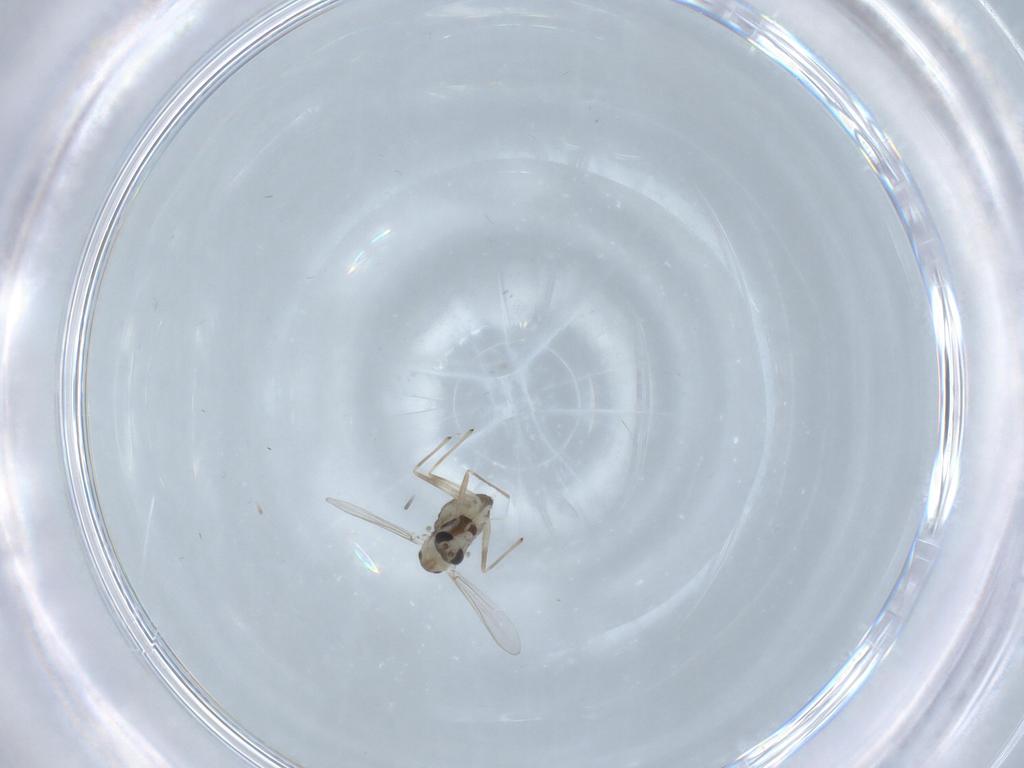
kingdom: Animalia
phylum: Arthropoda
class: Insecta
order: Diptera
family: Chironomidae
